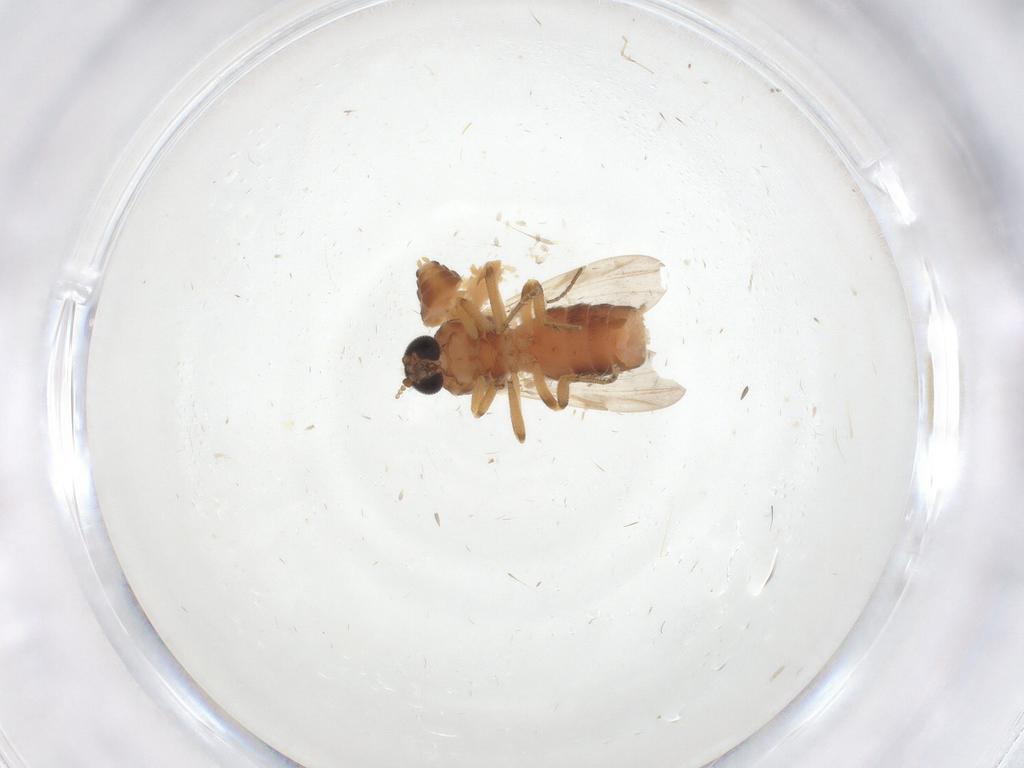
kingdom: Animalia
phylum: Arthropoda
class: Insecta
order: Diptera
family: Ceratopogonidae
